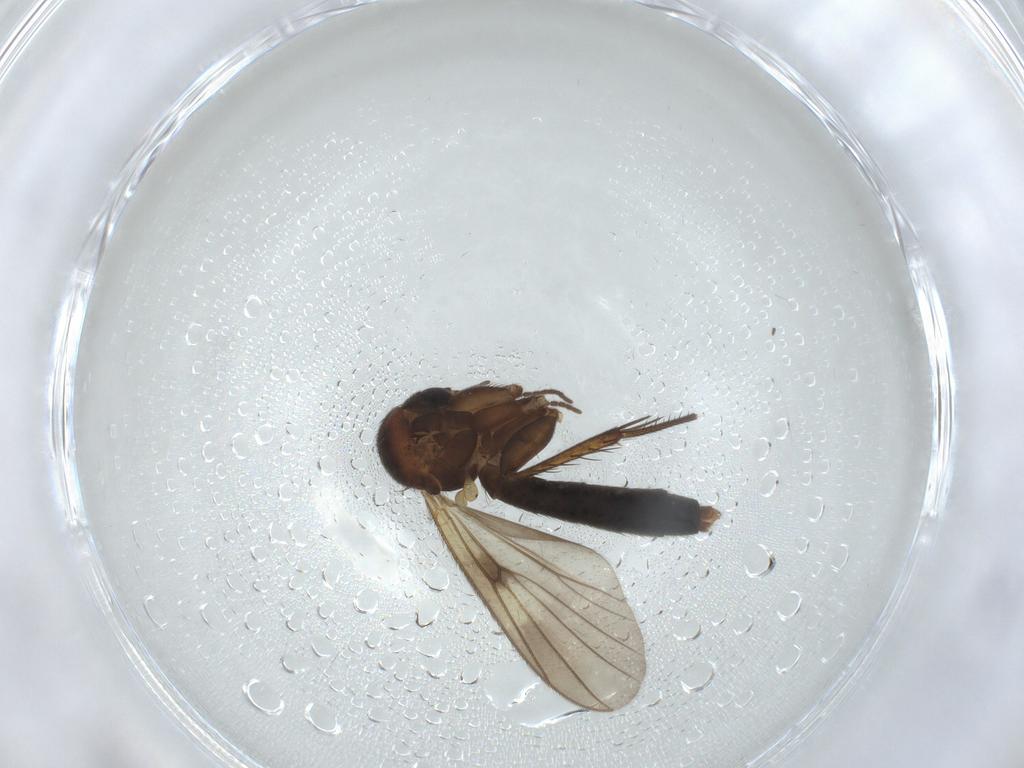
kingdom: Animalia
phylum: Arthropoda
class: Insecta
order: Diptera
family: Mycetophilidae
